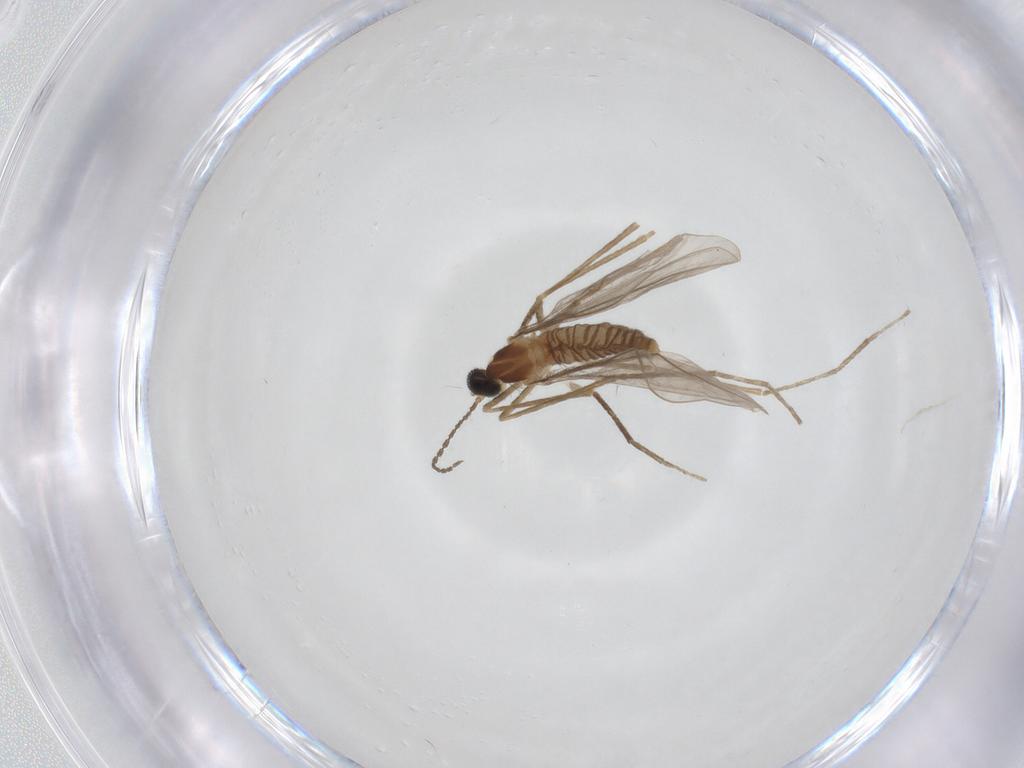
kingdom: Animalia
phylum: Arthropoda
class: Insecta
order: Diptera
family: Cecidomyiidae
